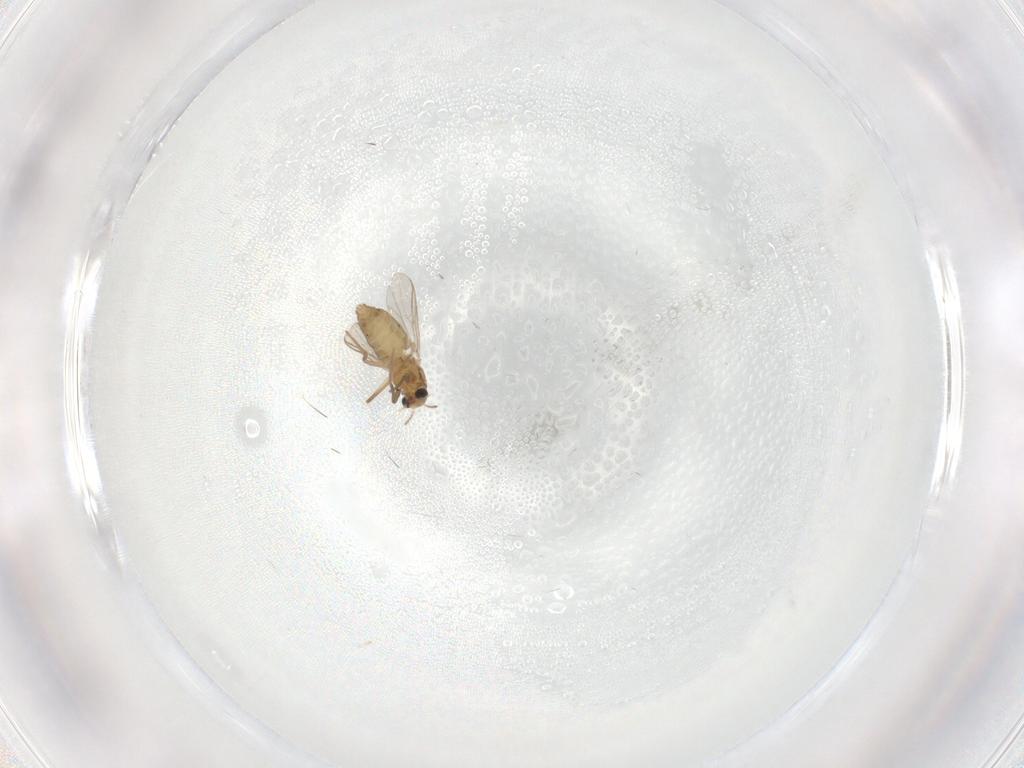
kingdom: Animalia
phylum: Arthropoda
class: Insecta
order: Diptera
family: Chironomidae
